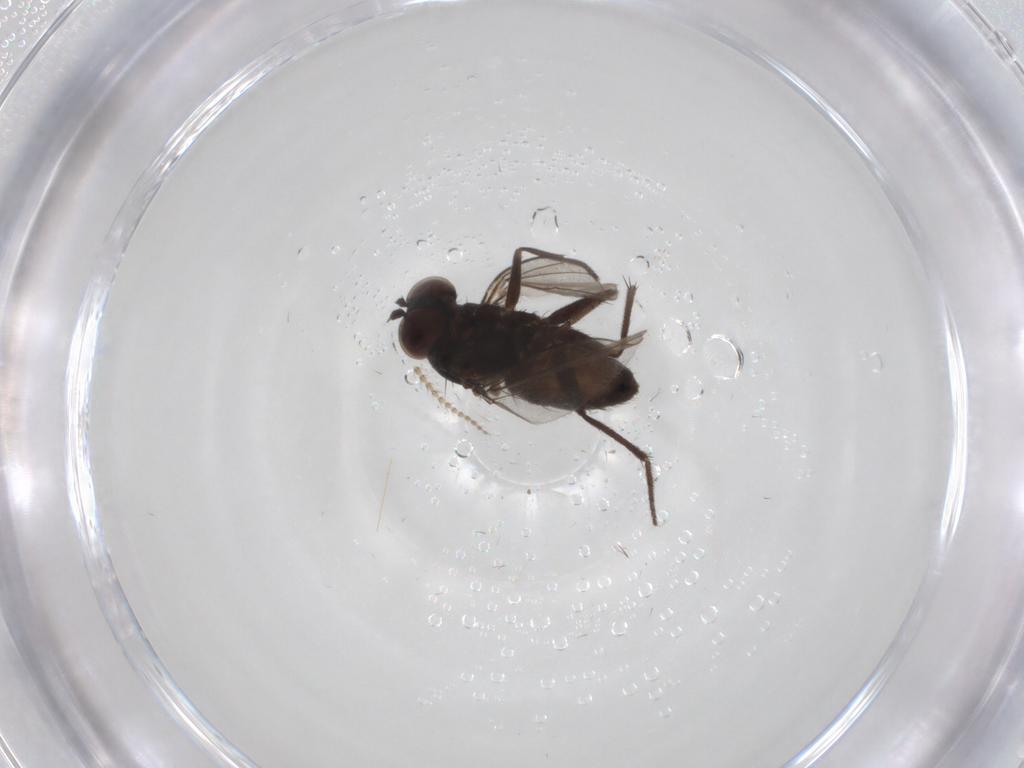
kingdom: Animalia
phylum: Arthropoda
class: Insecta
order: Diptera
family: Dolichopodidae
